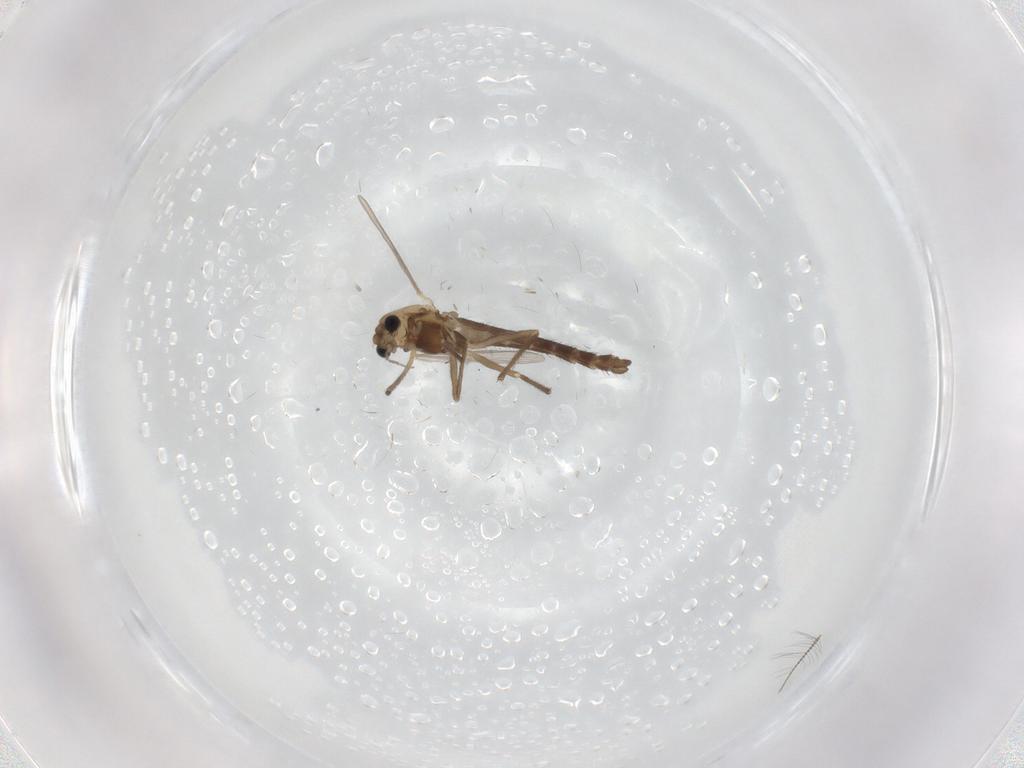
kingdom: Animalia
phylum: Arthropoda
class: Insecta
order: Diptera
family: Chironomidae
